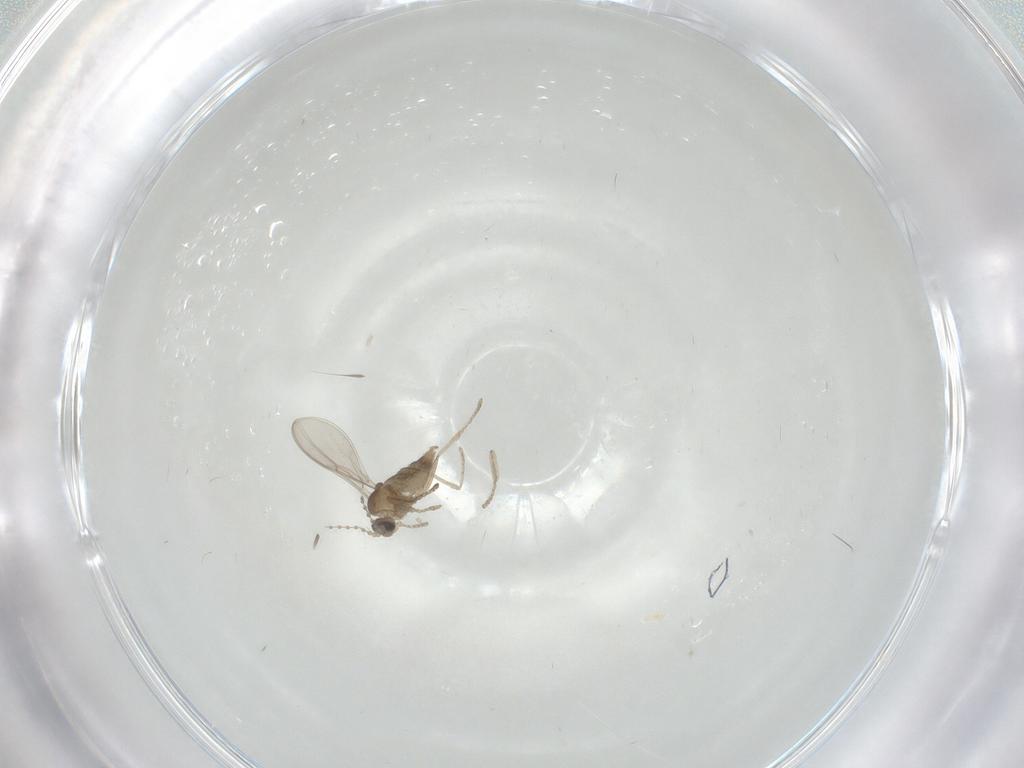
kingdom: Animalia
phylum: Arthropoda
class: Insecta
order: Diptera
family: Cecidomyiidae
